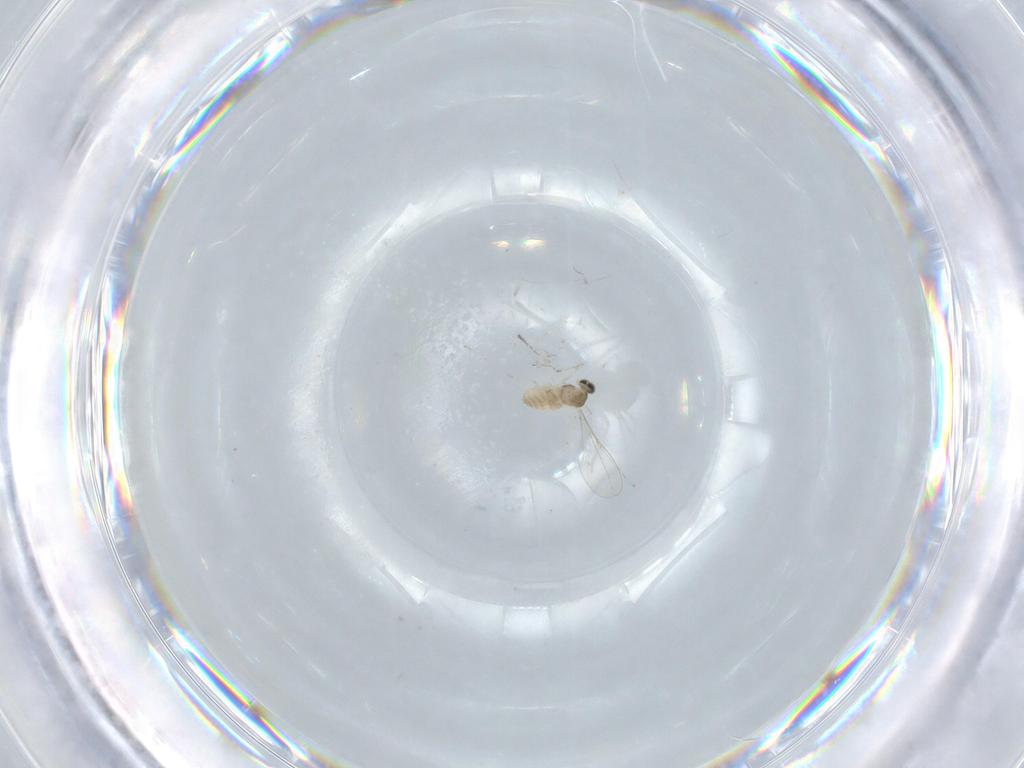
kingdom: Animalia
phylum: Arthropoda
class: Insecta
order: Diptera
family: Cecidomyiidae
